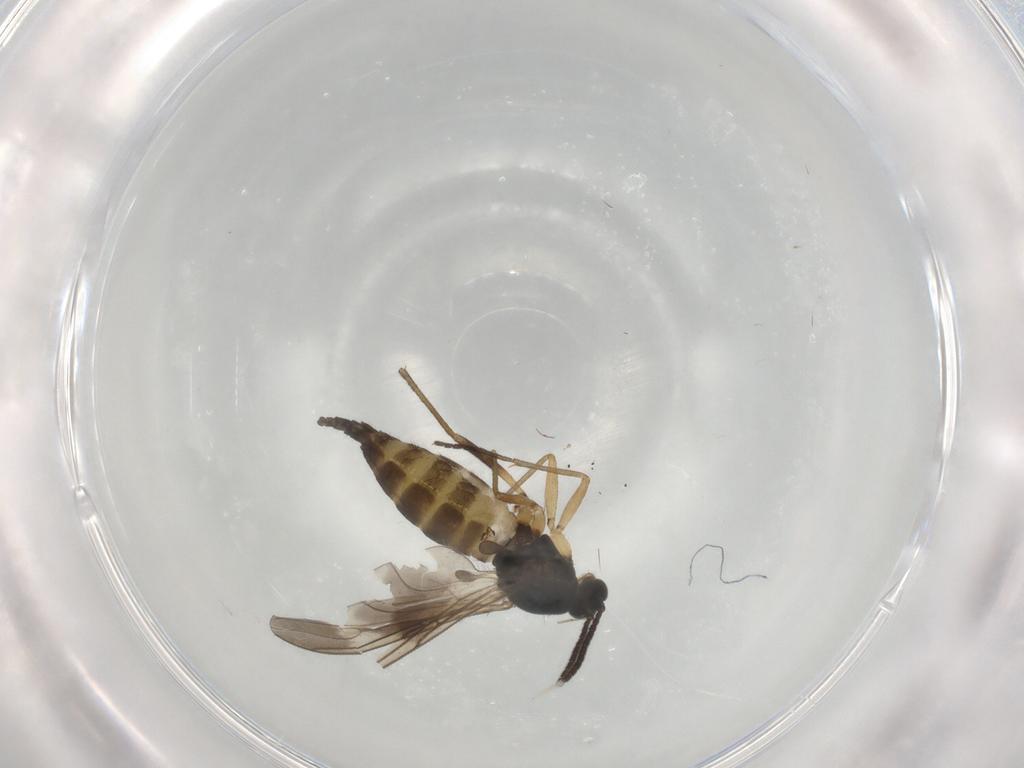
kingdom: Animalia
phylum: Arthropoda
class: Insecta
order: Diptera
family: Sciaridae
